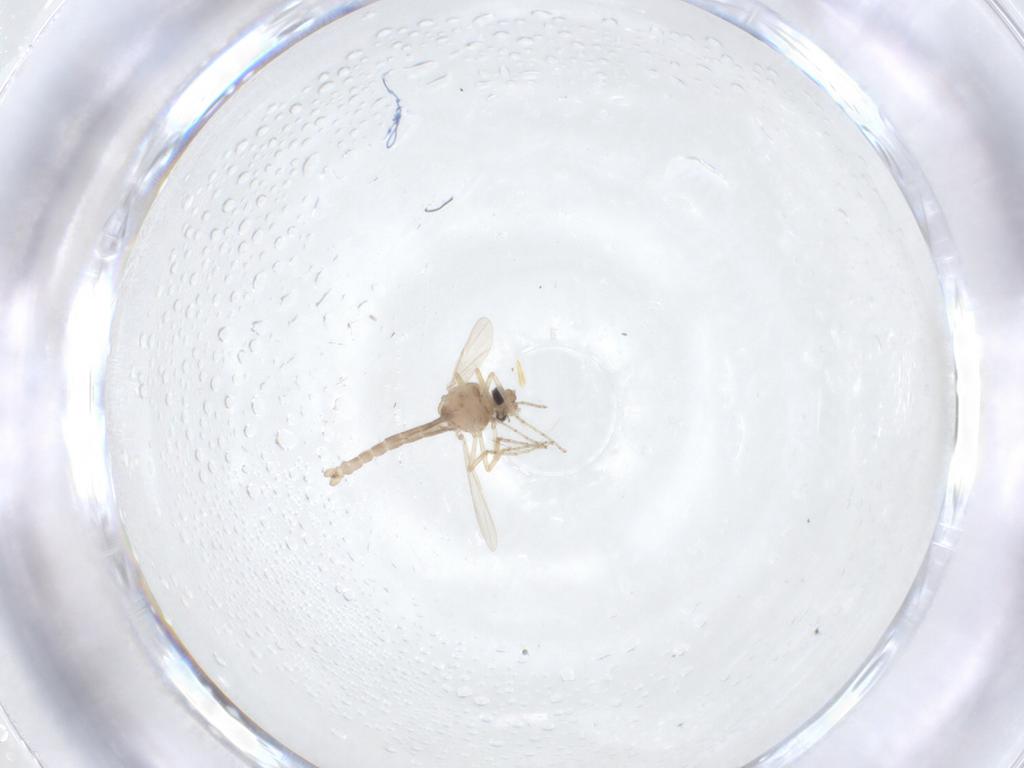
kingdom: Animalia
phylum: Arthropoda
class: Insecta
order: Diptera
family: Ceratopogonidae
